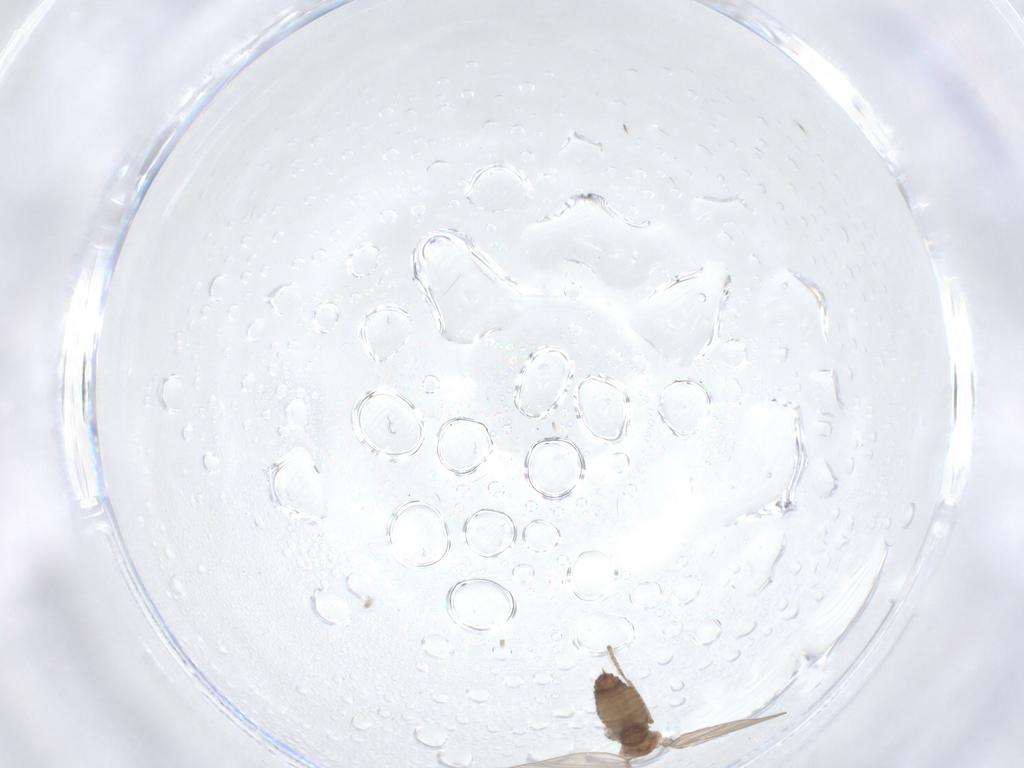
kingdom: Animalia
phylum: Arthropoda
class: Insecta
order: Diptera
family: Psychodidae
